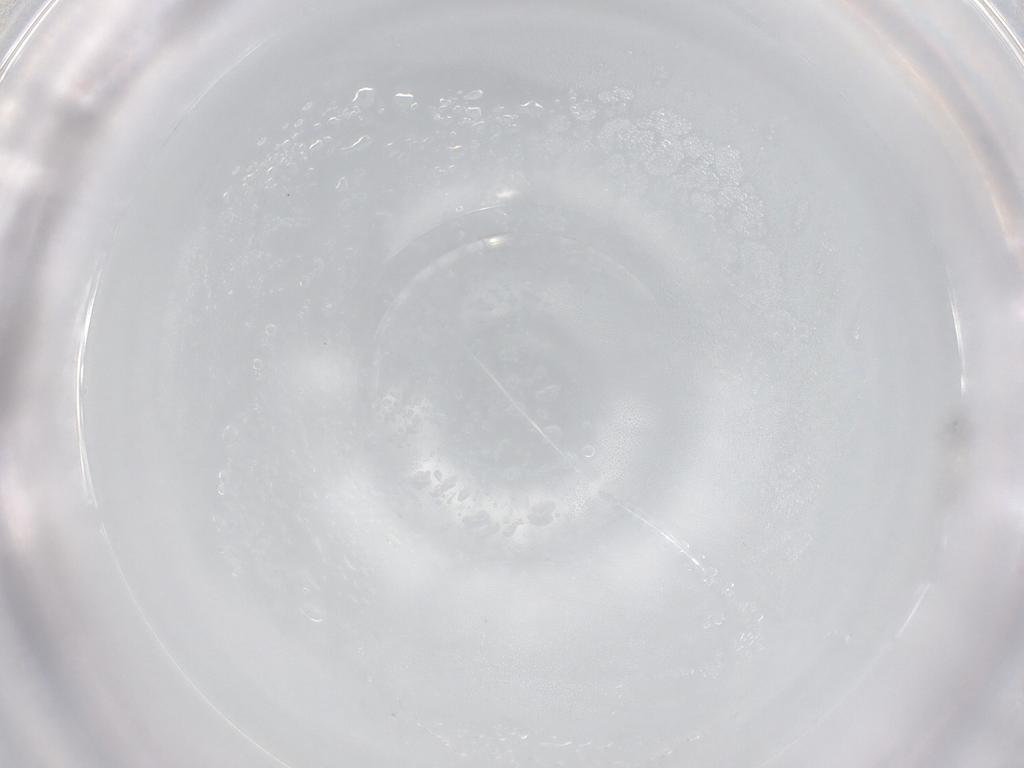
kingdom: Animalia
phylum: Arthropoda
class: Collembola
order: Entomobryomorpha
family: Entomobryidae
